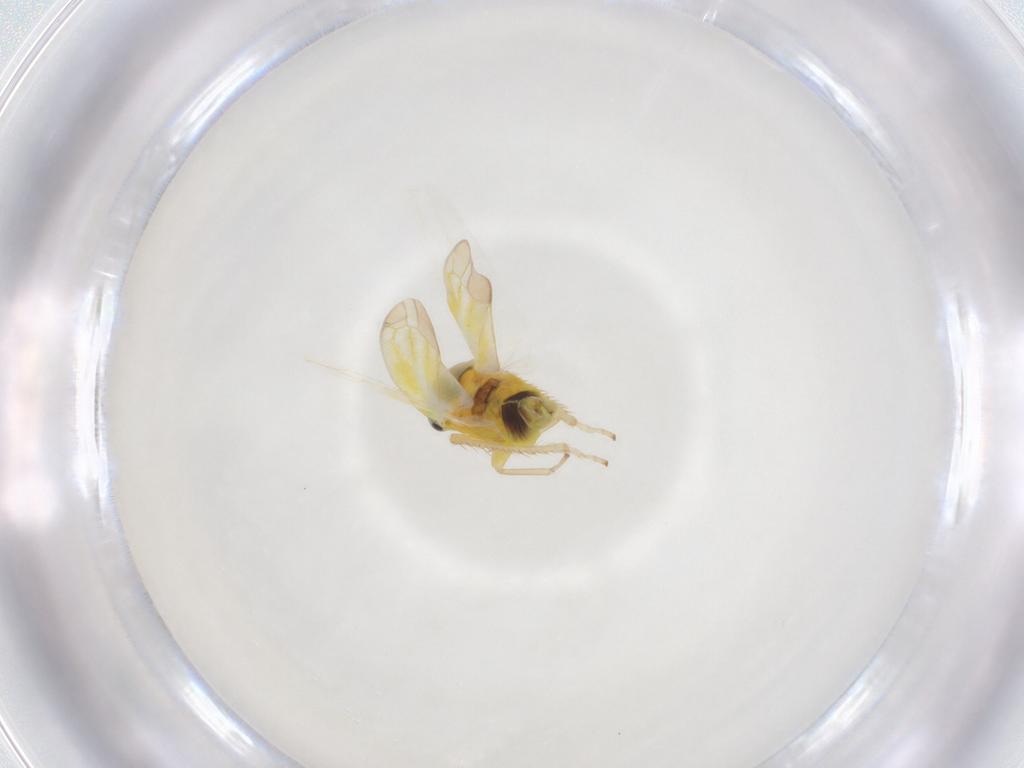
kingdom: Animalia
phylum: Arthropoda
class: Insecta
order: Hemiptera
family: Cicadellidae
